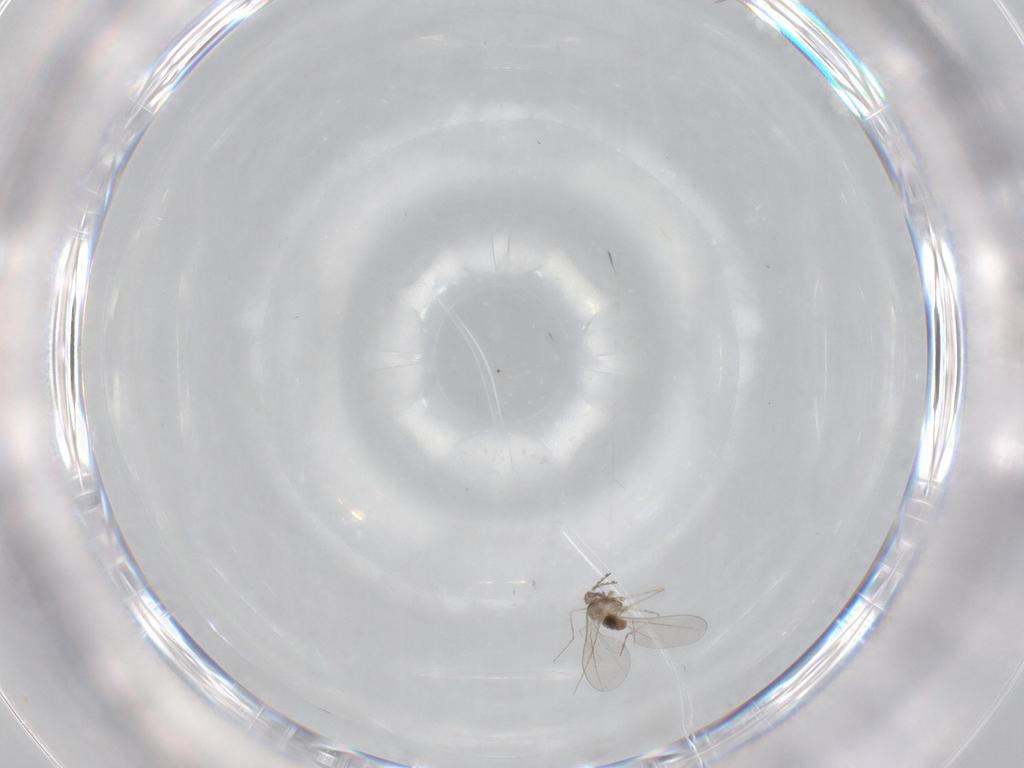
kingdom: Animalia
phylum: Arthropoda
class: Insecta
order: Diptera
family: Cecidomyiidae
